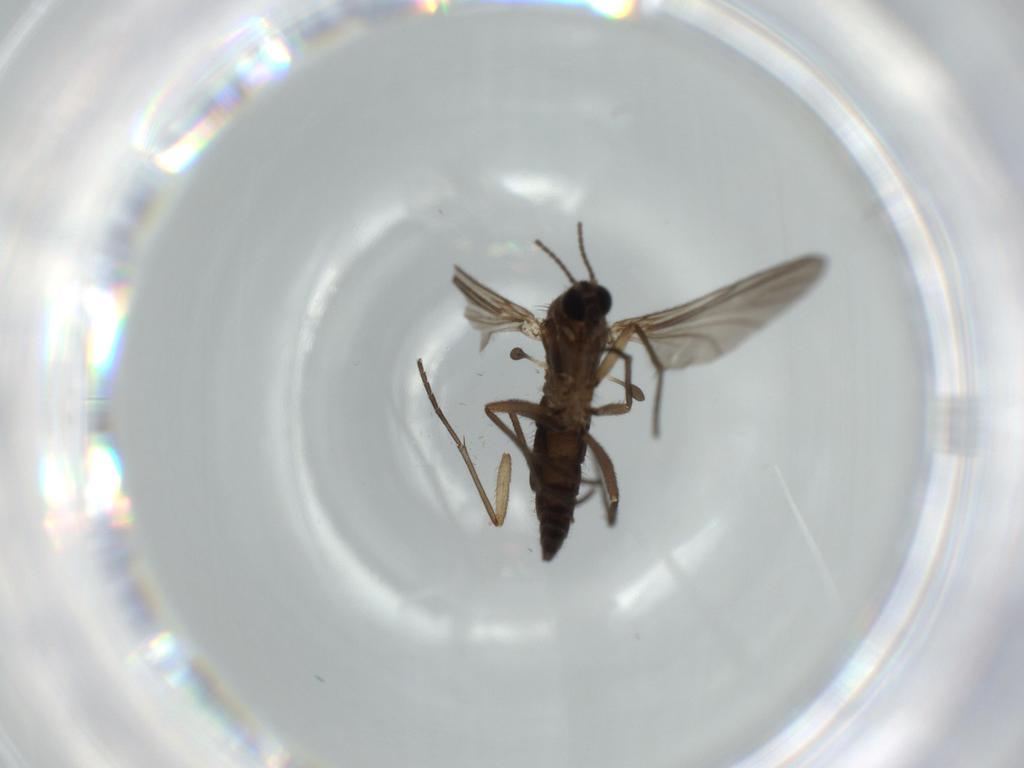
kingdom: Animalia
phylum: Arthropoda
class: Insecta
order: Diptera
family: Sciaridae
